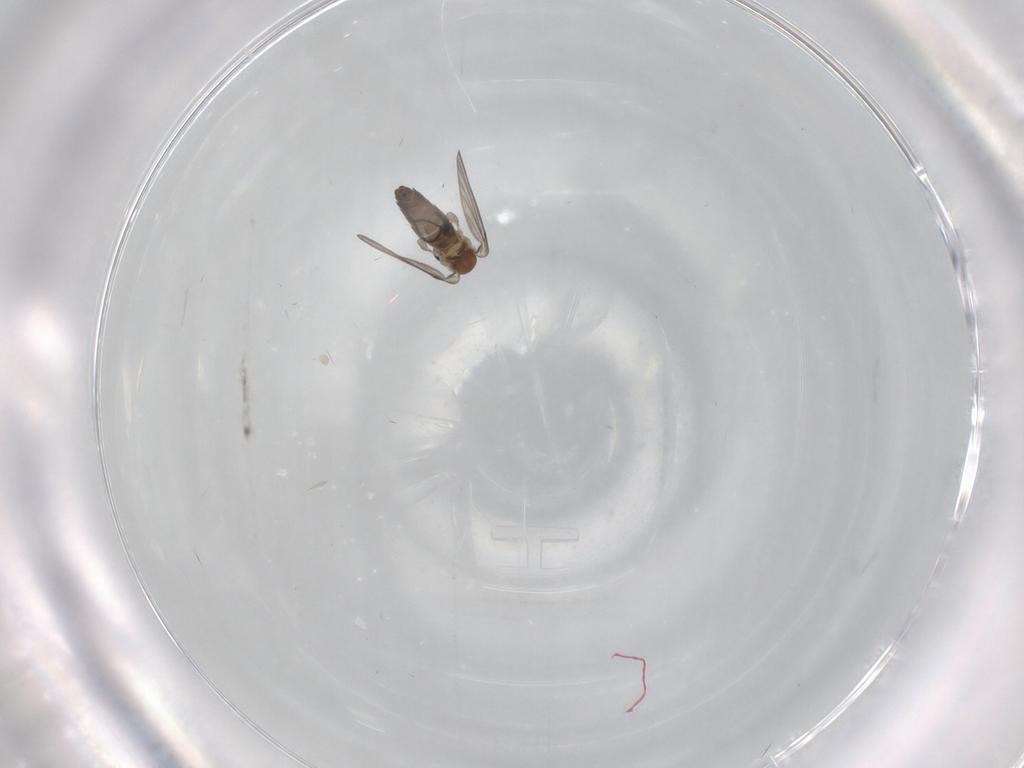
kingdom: Animalia
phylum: Arthropoda
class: Insecta
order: Diptera
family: Psychodidae
